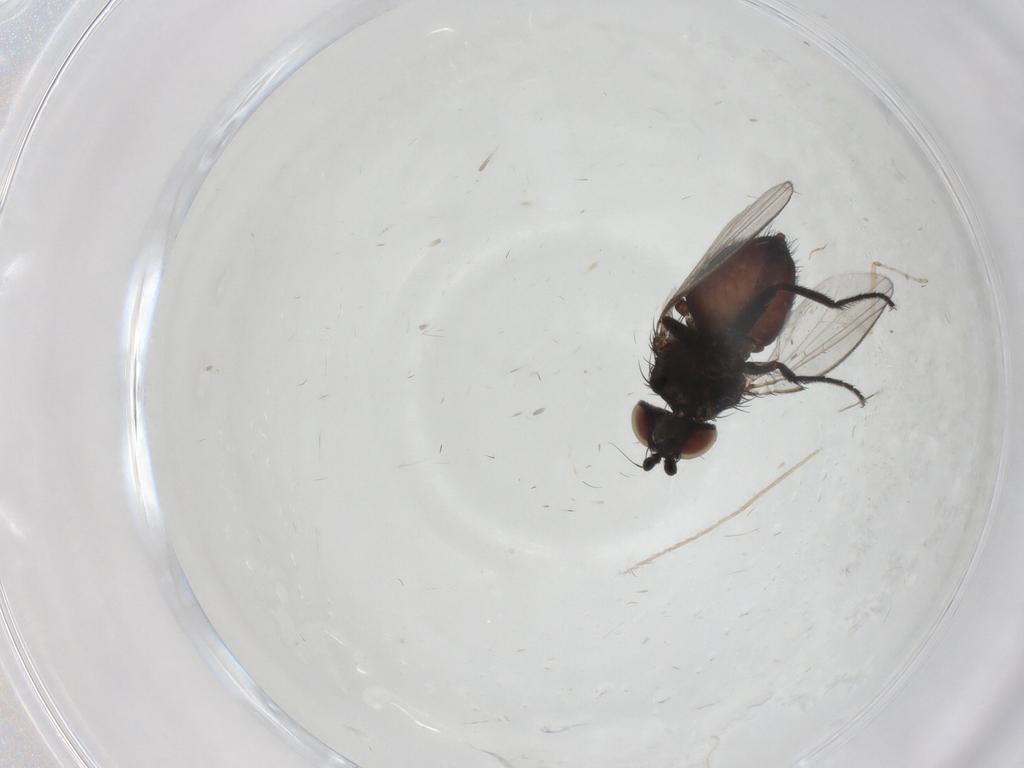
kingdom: Animalia
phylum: Arthropoda
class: Insecta
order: Diptera
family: Milichiidae
